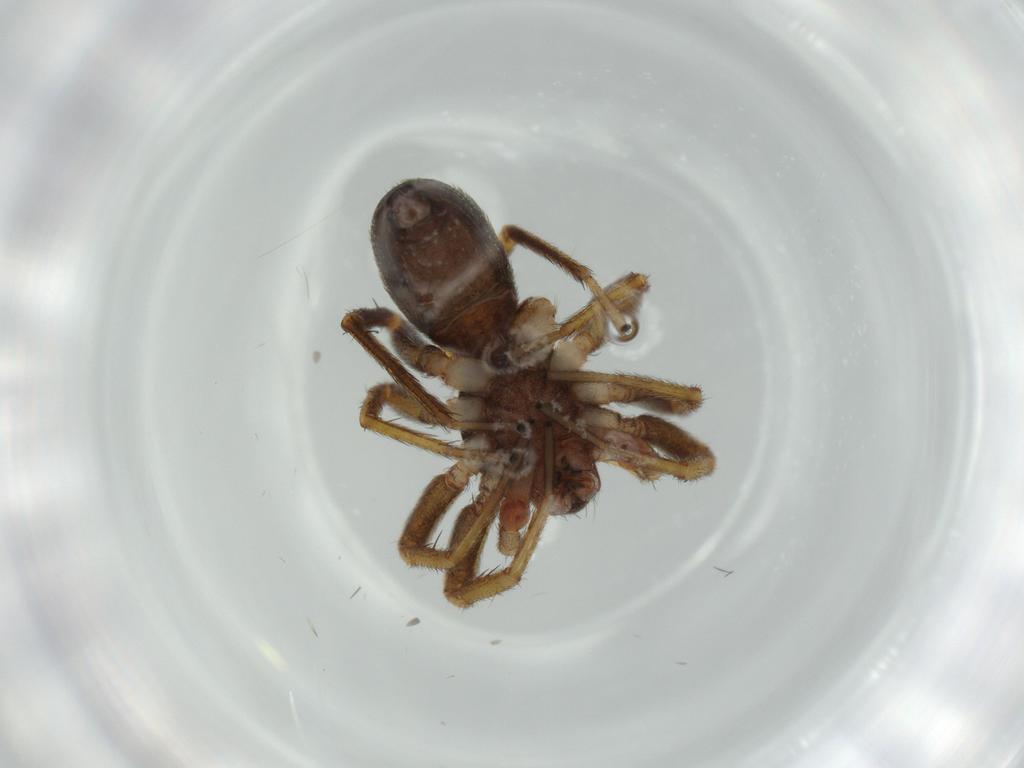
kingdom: Animalia
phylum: Arthropoda
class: Arachnida
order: Araneae
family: Corinnidae
